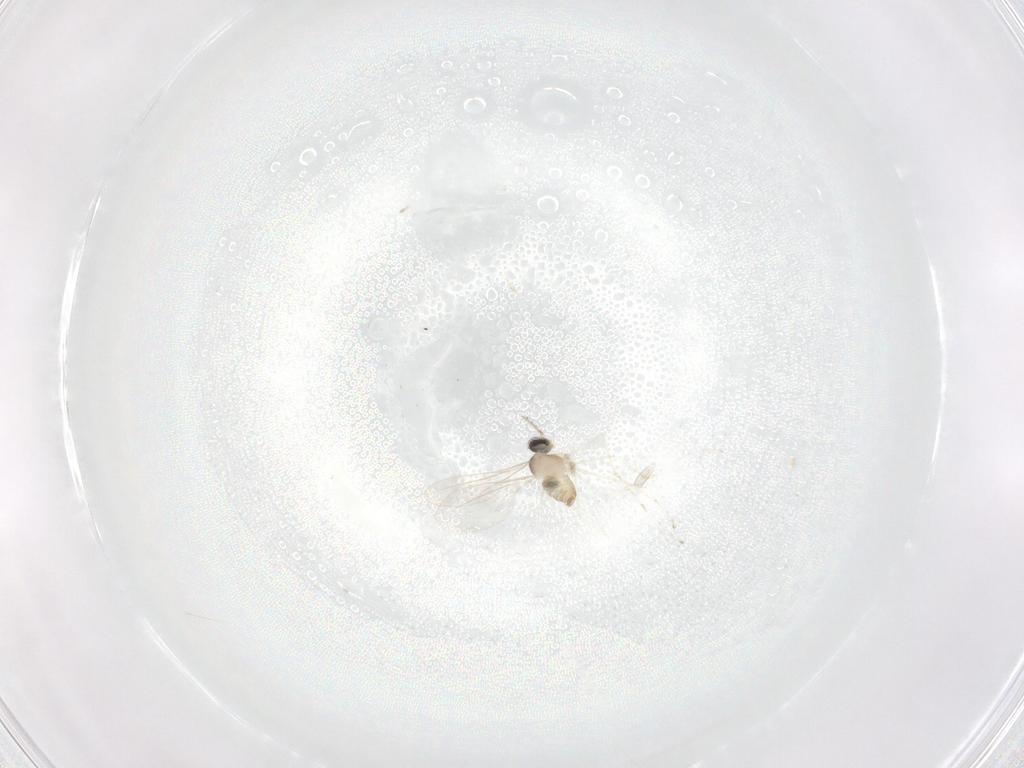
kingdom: Animalia
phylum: Arthropoda
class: Insecta
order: Diptera
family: Cecidomyiidae
